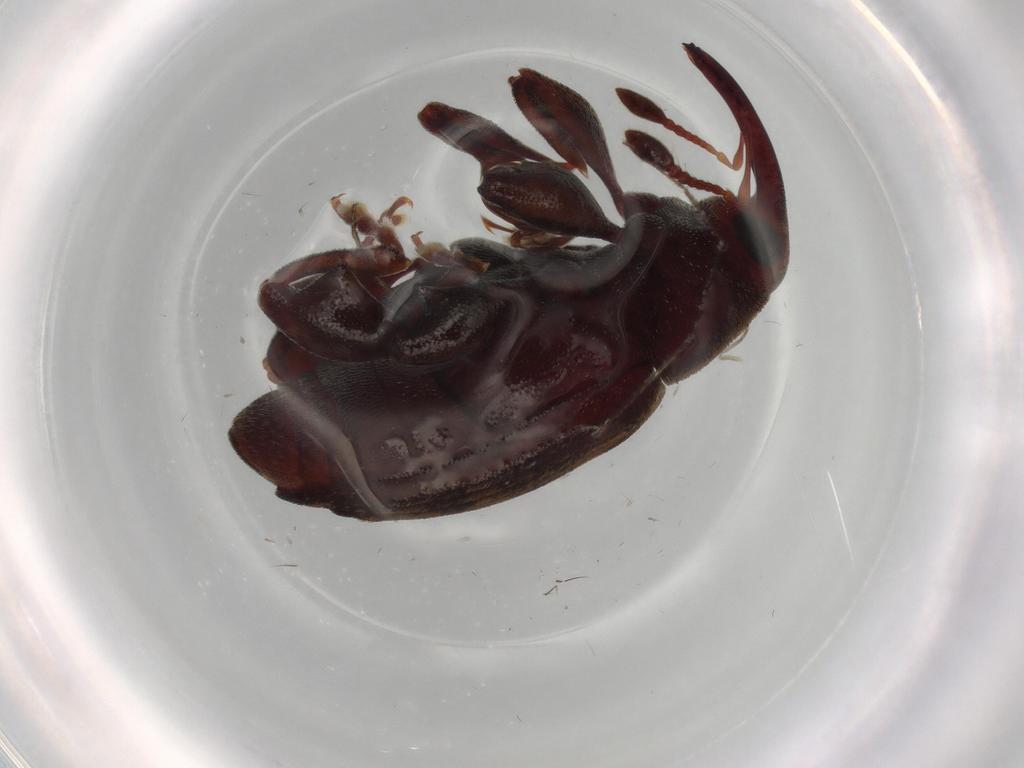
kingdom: Animalia
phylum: Arthropoda
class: Insecta
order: Coleoptera
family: Curculionidae
